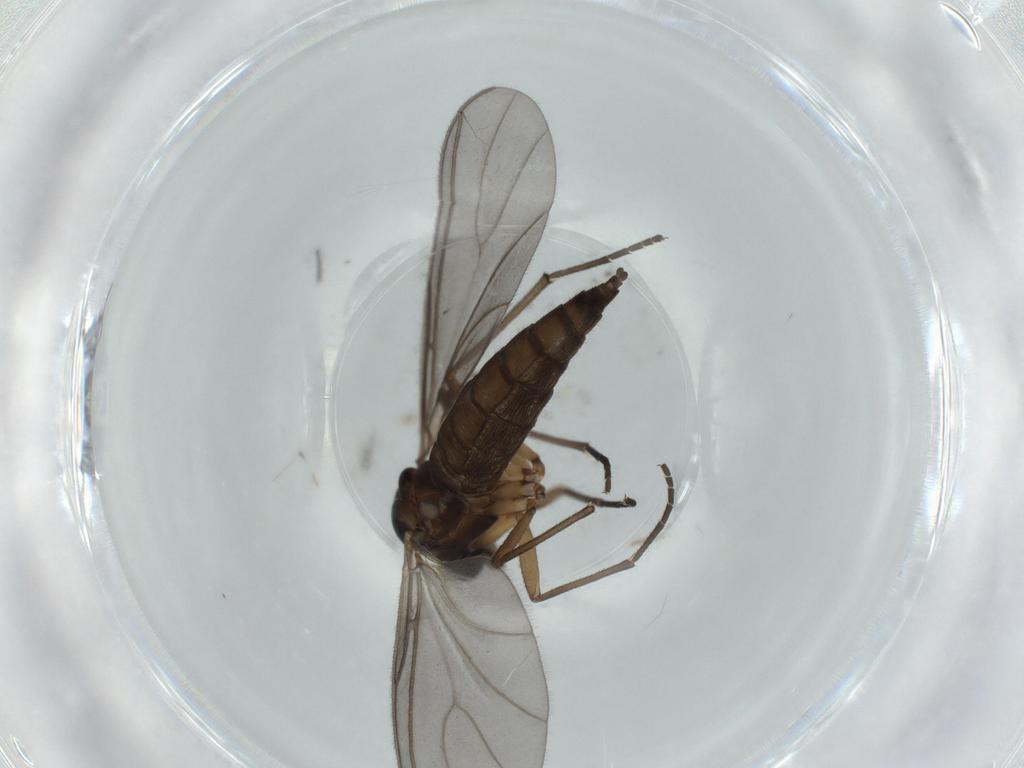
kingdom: Animalia
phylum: Arthropoda
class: Insecta
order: Diptera
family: Sciaridae
